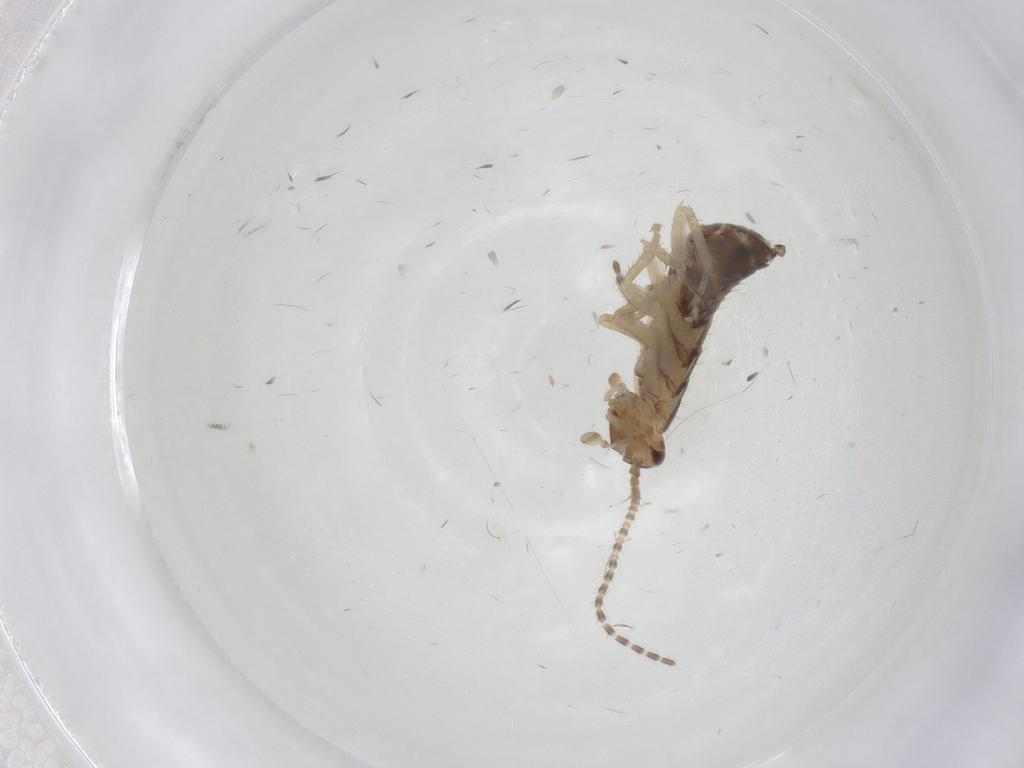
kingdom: Animalia
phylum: Arthropoda
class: Insecta
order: Blattodea
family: Ectobiidae
